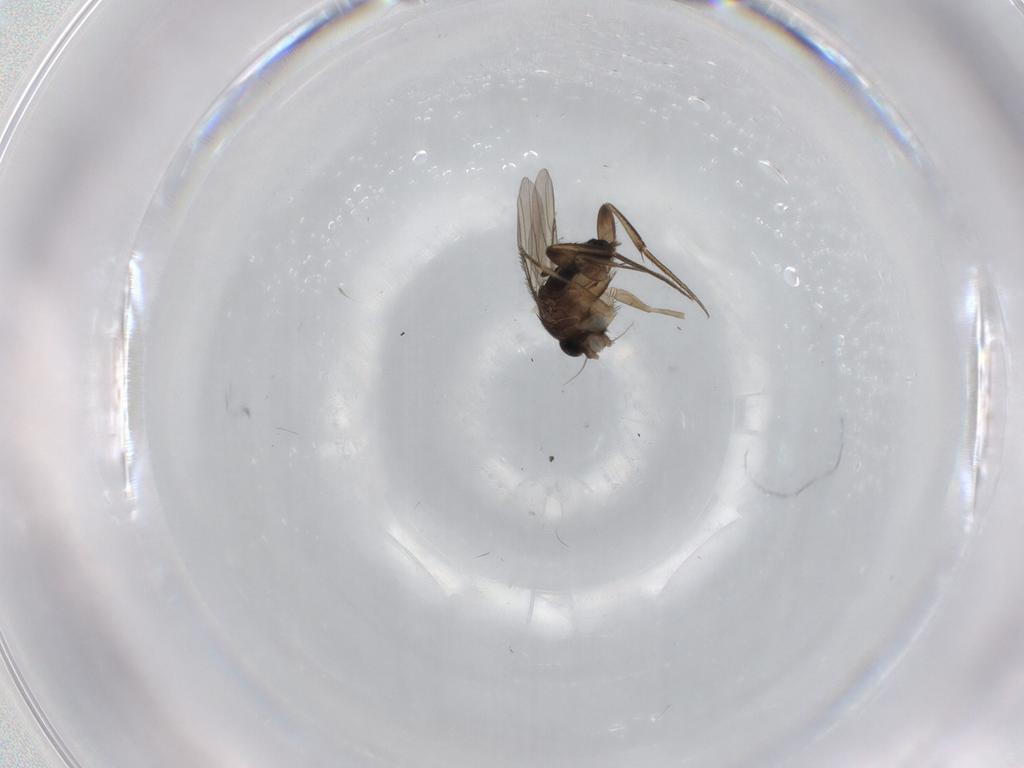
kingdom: Animalia
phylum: Arthropoda
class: Insecta
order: Diptera
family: Phoridae
